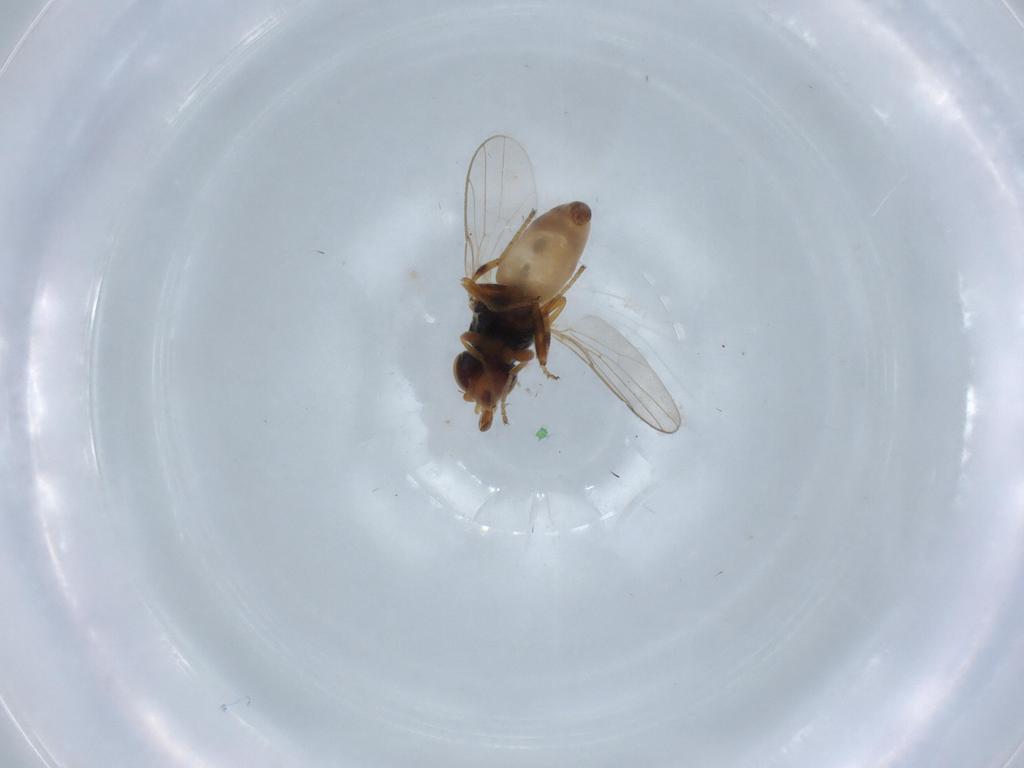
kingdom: Animalia
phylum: Arthropoda
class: Insecta
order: Diptera
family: Chloropidae
